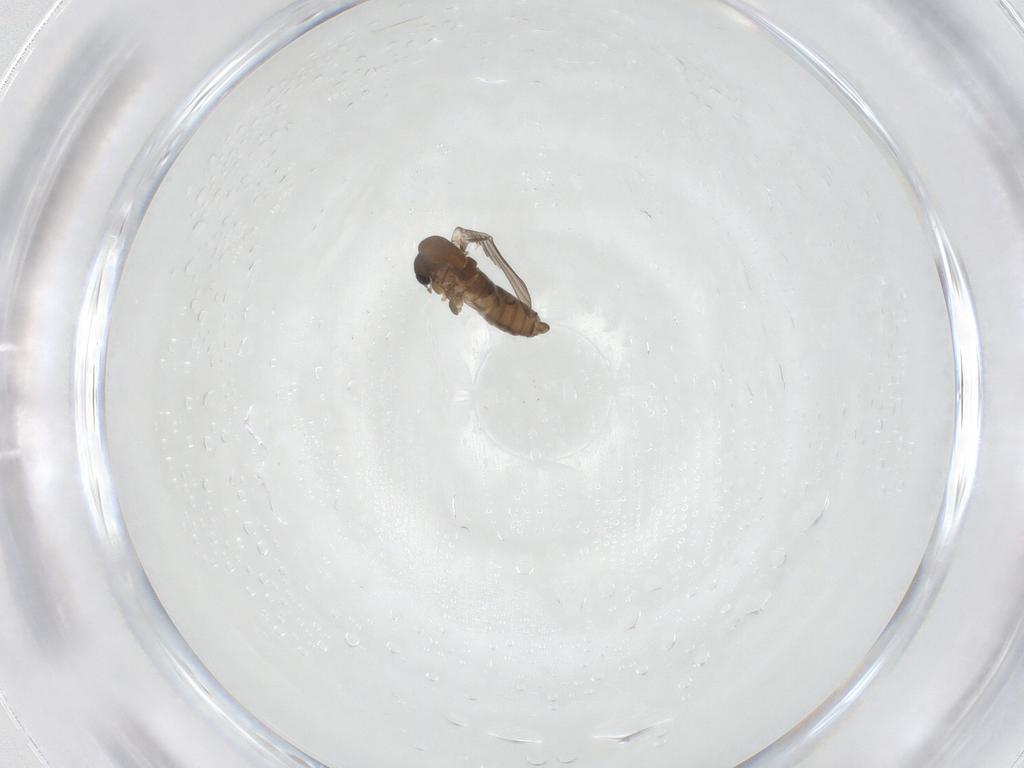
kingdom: Animalia
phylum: Arthropoda
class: Insecta
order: Diptera
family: Psychodidae
